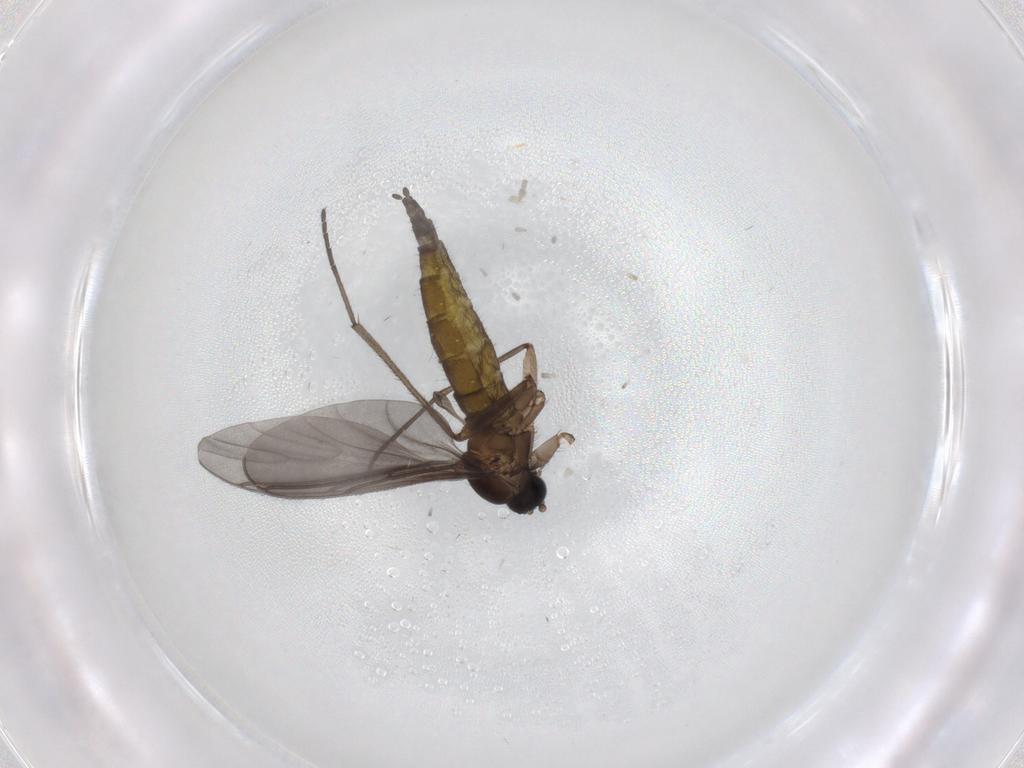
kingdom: Animalia
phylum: Arthropoda
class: Insecta
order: Diptera
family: Sciaridae
